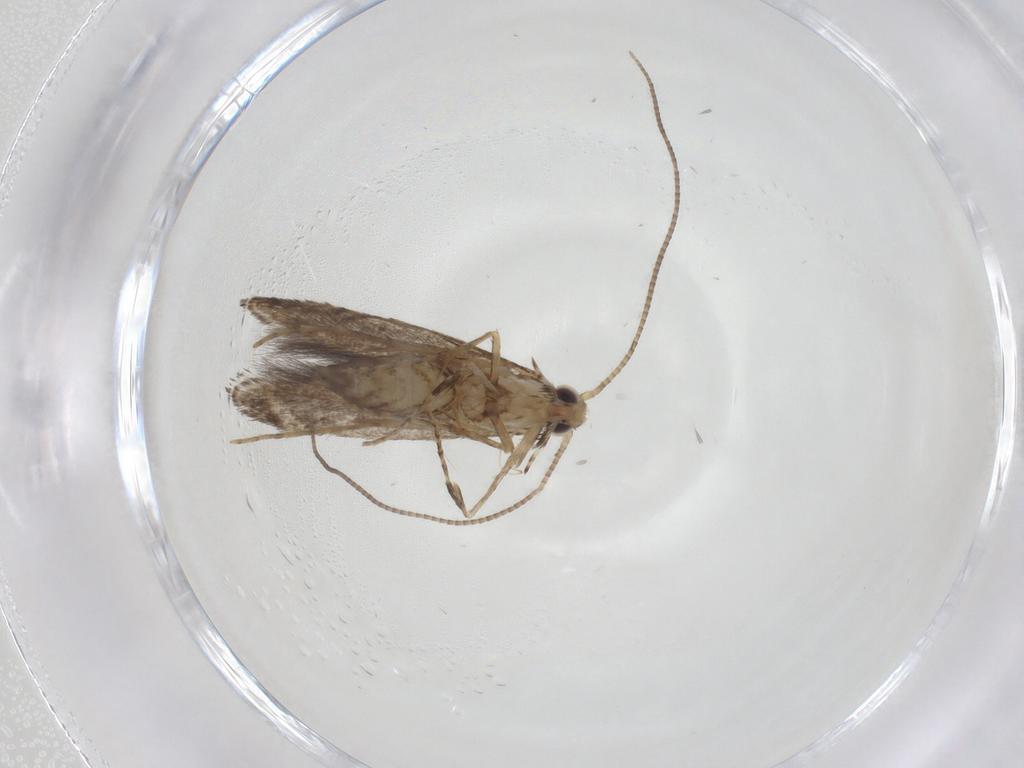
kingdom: Animalia
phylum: Arthropoda
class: Insecta
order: Lepidoptera
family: Gracillariidae
